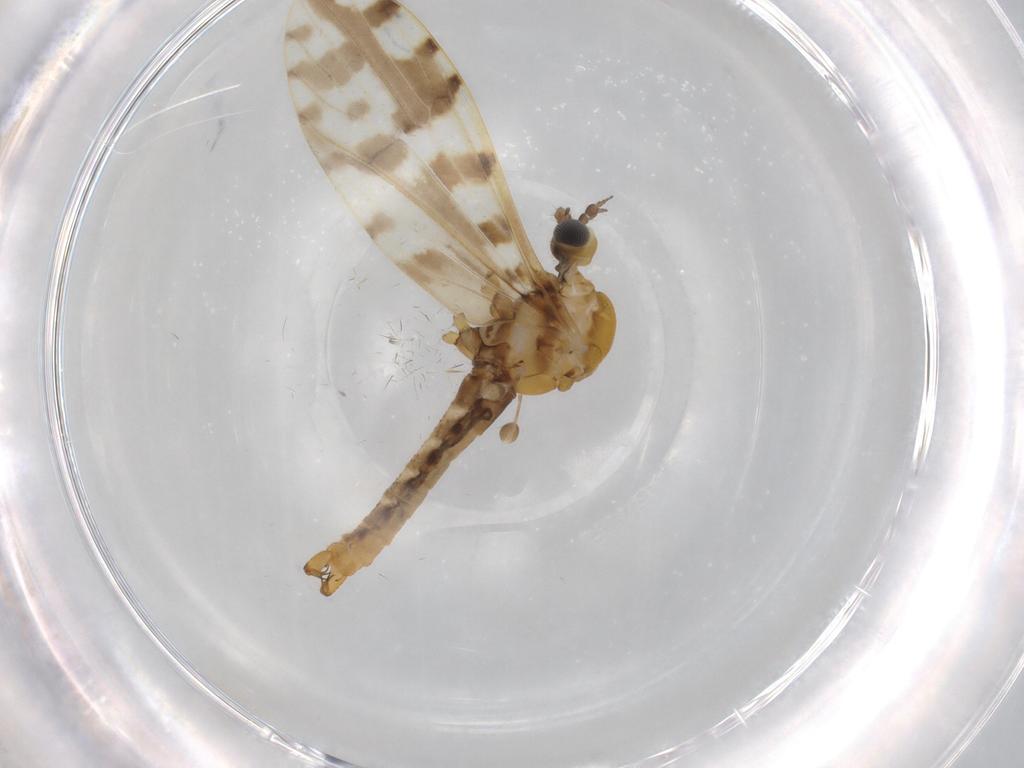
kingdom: Animalia
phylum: Arthropoda
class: Insecta
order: Diptera
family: Limoniidae
